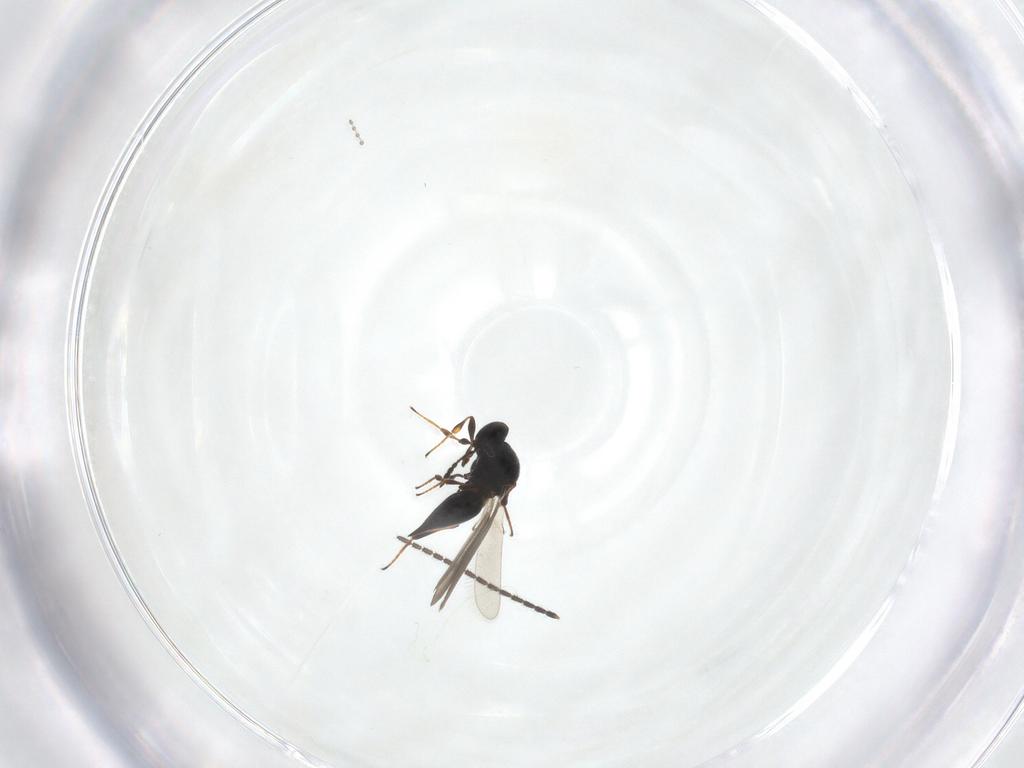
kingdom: Animalia
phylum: Arthropoda
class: Insecta
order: Hymenoptera
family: Platygastridae
